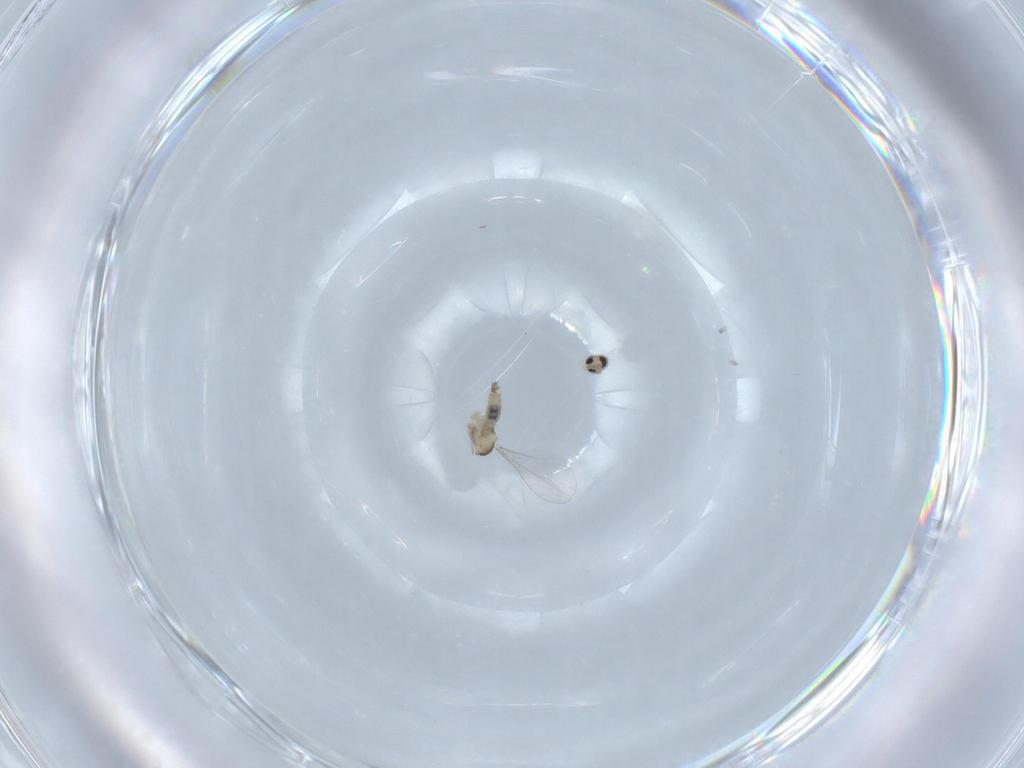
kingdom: Animalia
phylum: Arthropoda
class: Insecta
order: Diptera
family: Cecidomyiidae
